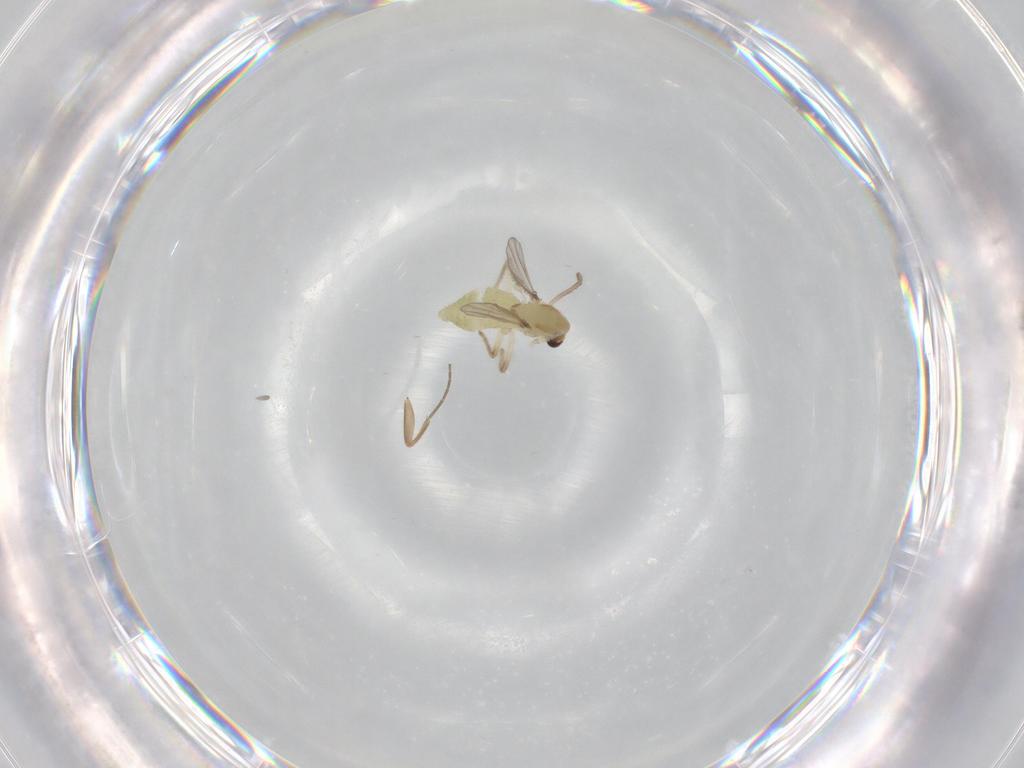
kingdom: Animalia
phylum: Arthropoda
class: Insecta
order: Diptera
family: Chironomidae
